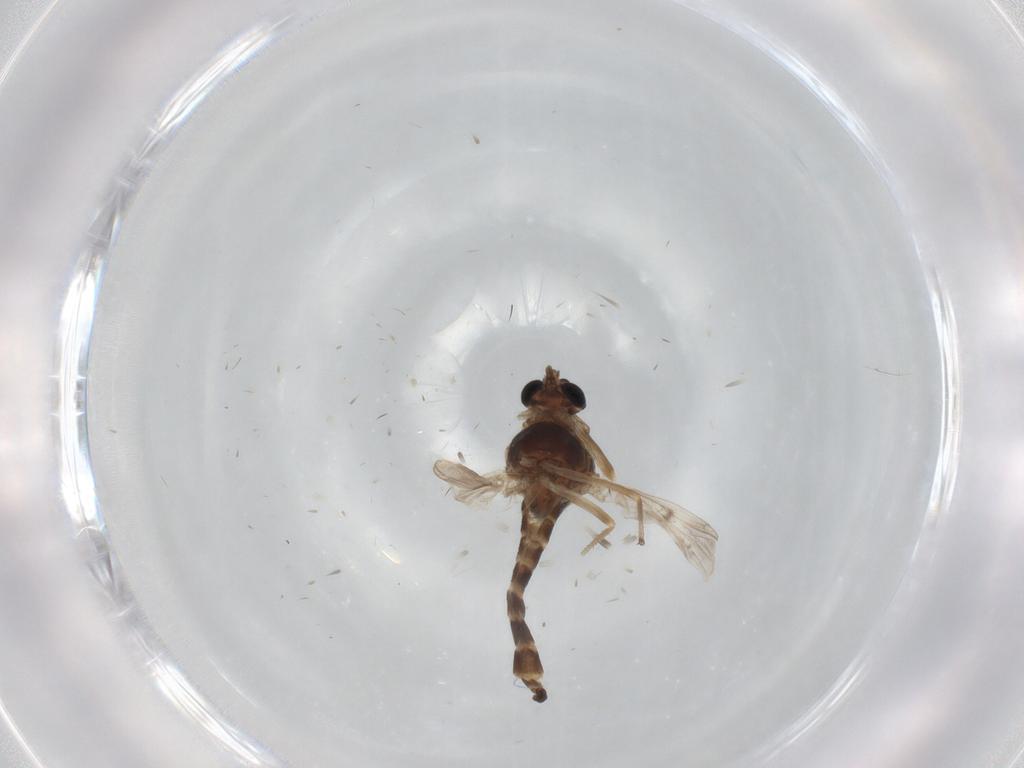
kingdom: Animalia
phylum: Arthropoda
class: Insecta
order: Diptera
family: Chironomidae
